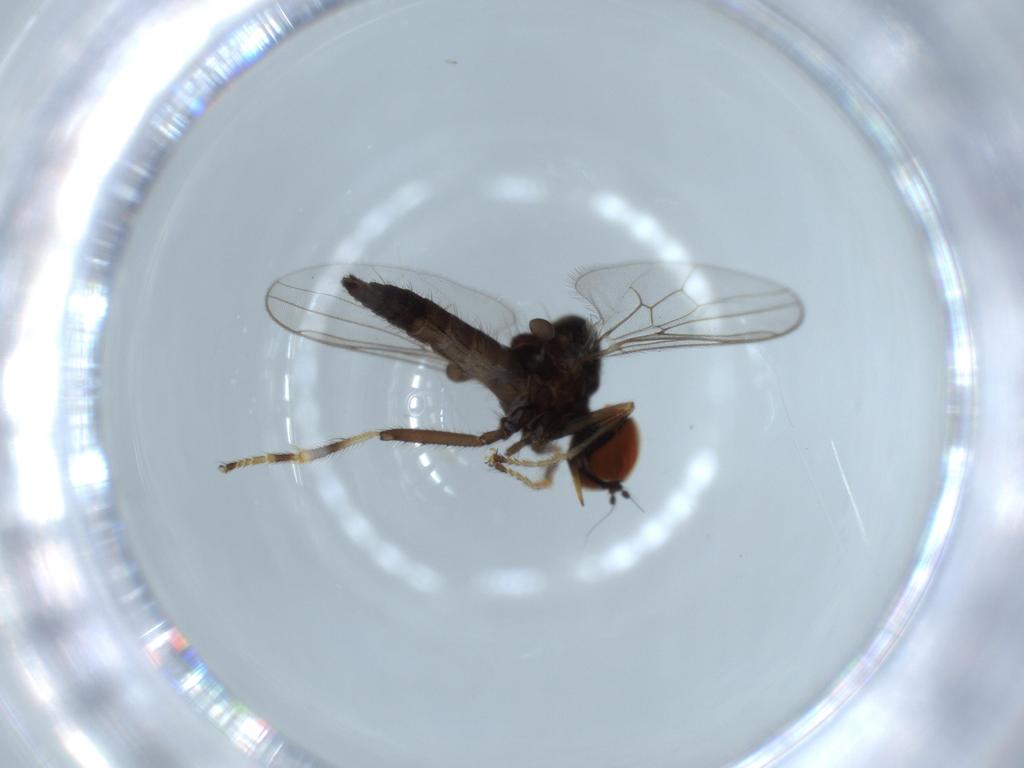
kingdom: Animalia
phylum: Arthropoda
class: Insecta
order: Diptera
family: Hybotidae
